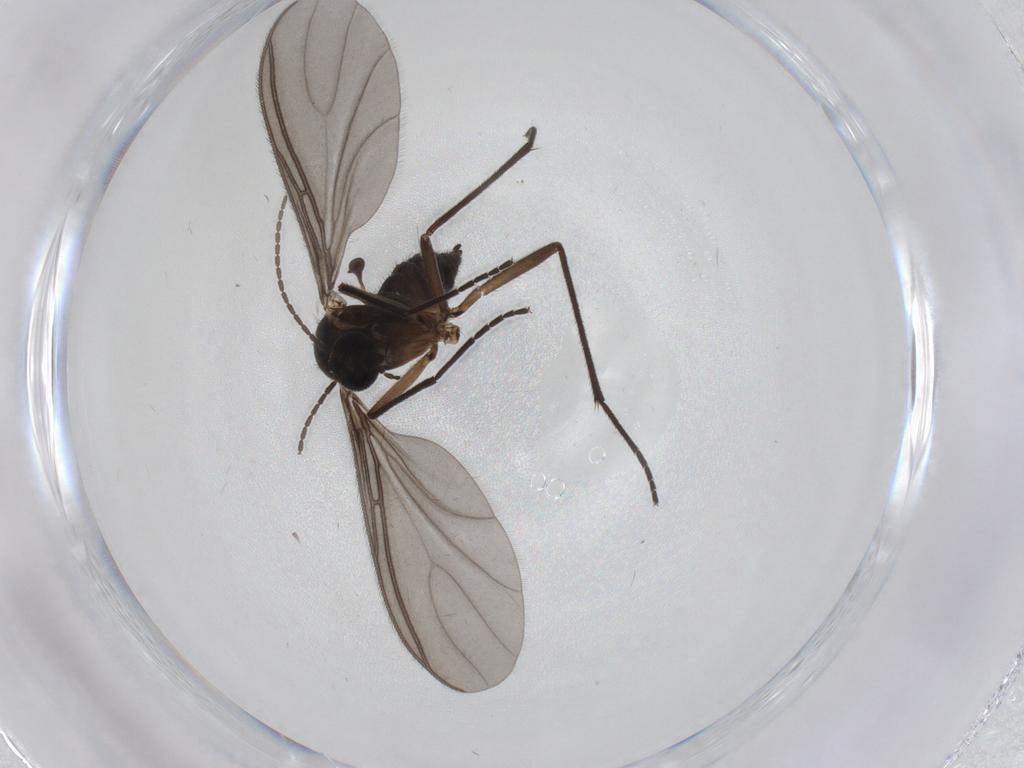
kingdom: Animalia
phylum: Arthropoda
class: Insecta
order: Diptera
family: Sciaridae
